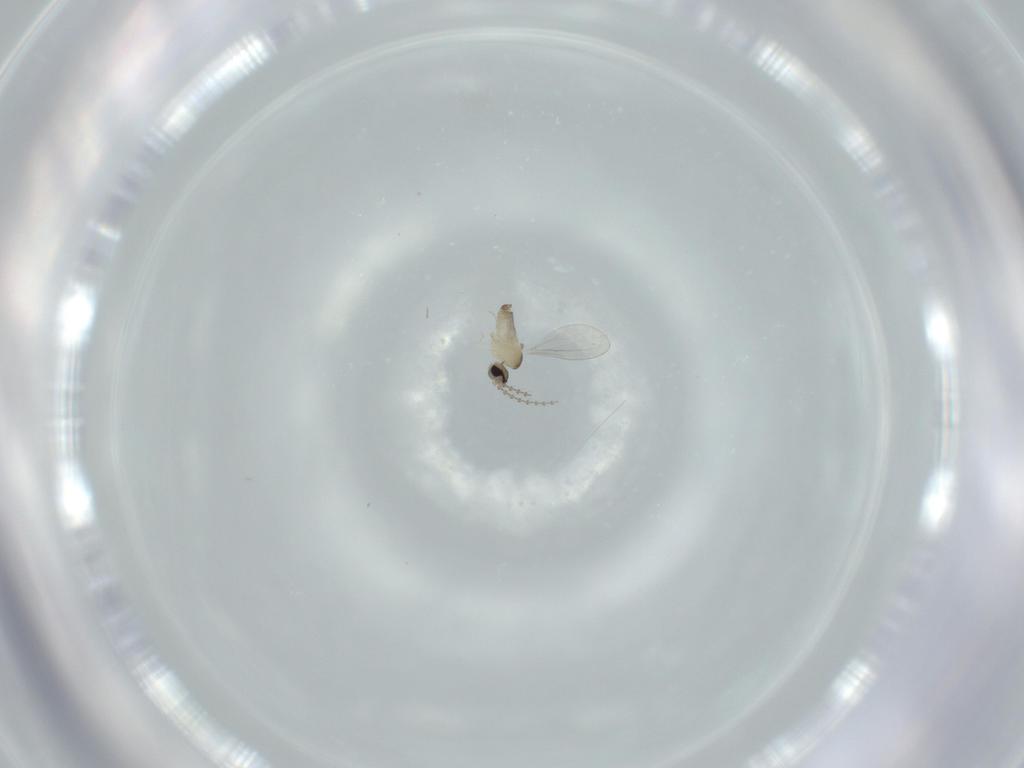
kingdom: Animalia
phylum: Arthropoda
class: Insecta
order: Diptera
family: Cecidomyiidae
